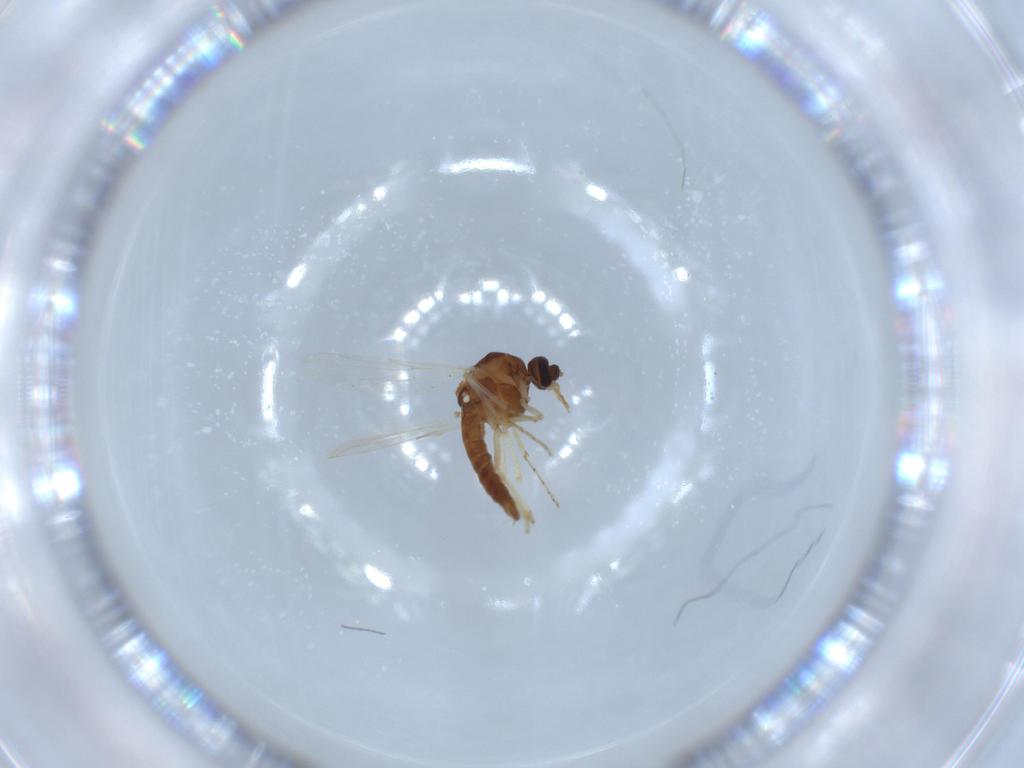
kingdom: Animalia
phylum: Arthropoda
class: Insecta
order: Diptera
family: Ceratopogonidae
